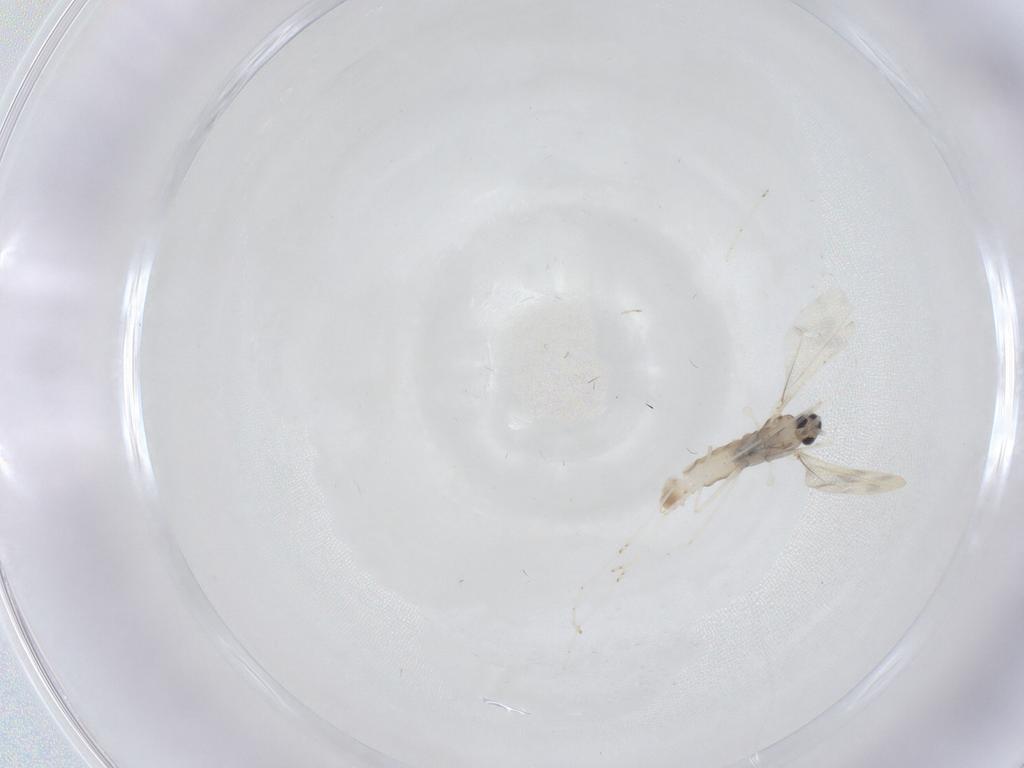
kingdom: Animalia
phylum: Arthropoda
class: Insecta
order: Diptera
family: Cecidomyiidae
